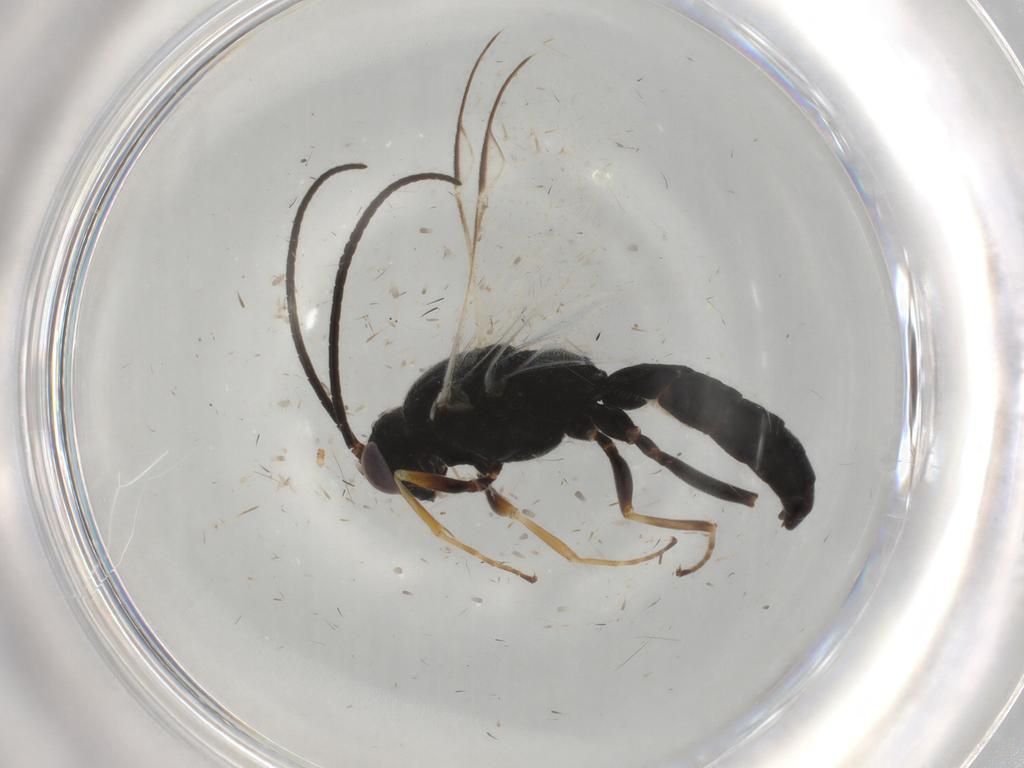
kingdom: Animalia
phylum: Arthropoda
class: Insecta
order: Hymenoptera
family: Ichneumonidae
